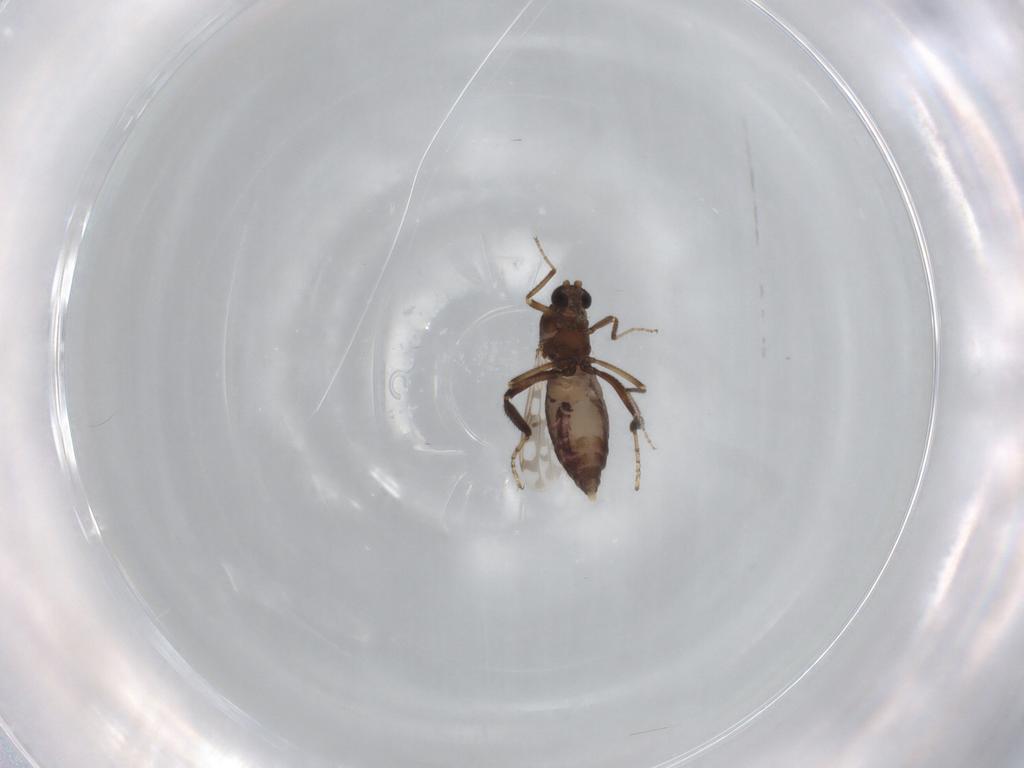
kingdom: Animalia
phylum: Arthropoda
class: Insecta
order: Diptera
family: Ceratopogonidae
